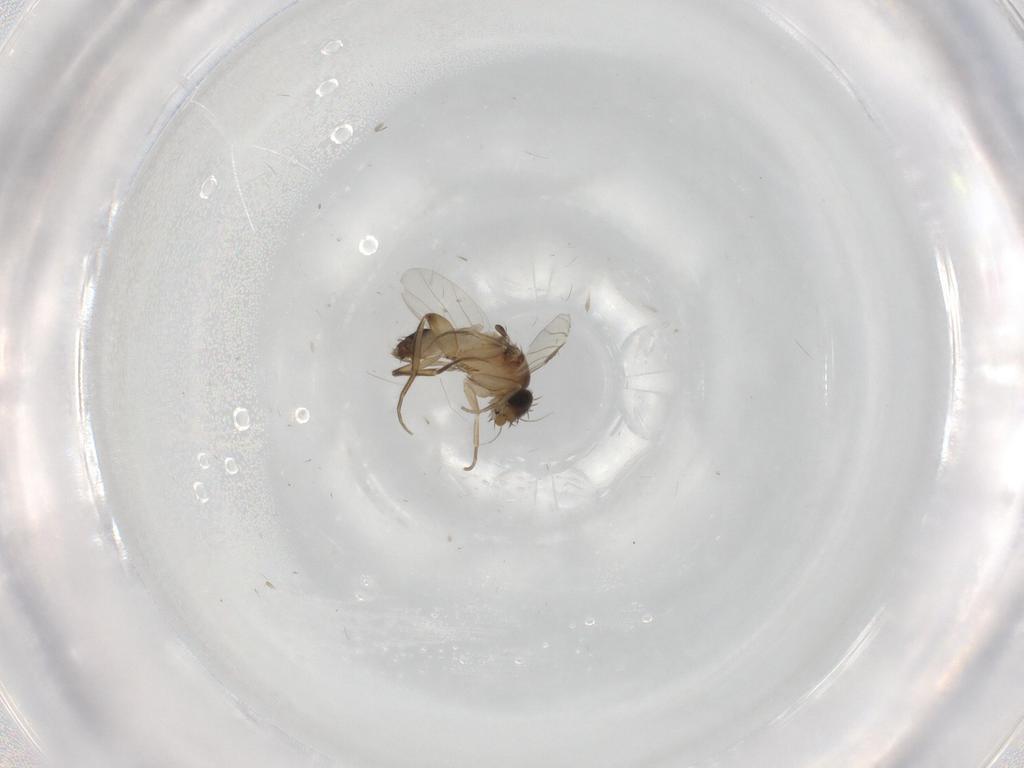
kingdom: Animalia
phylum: Arthropoda
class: Insecta
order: Diptera
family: Phoridae
